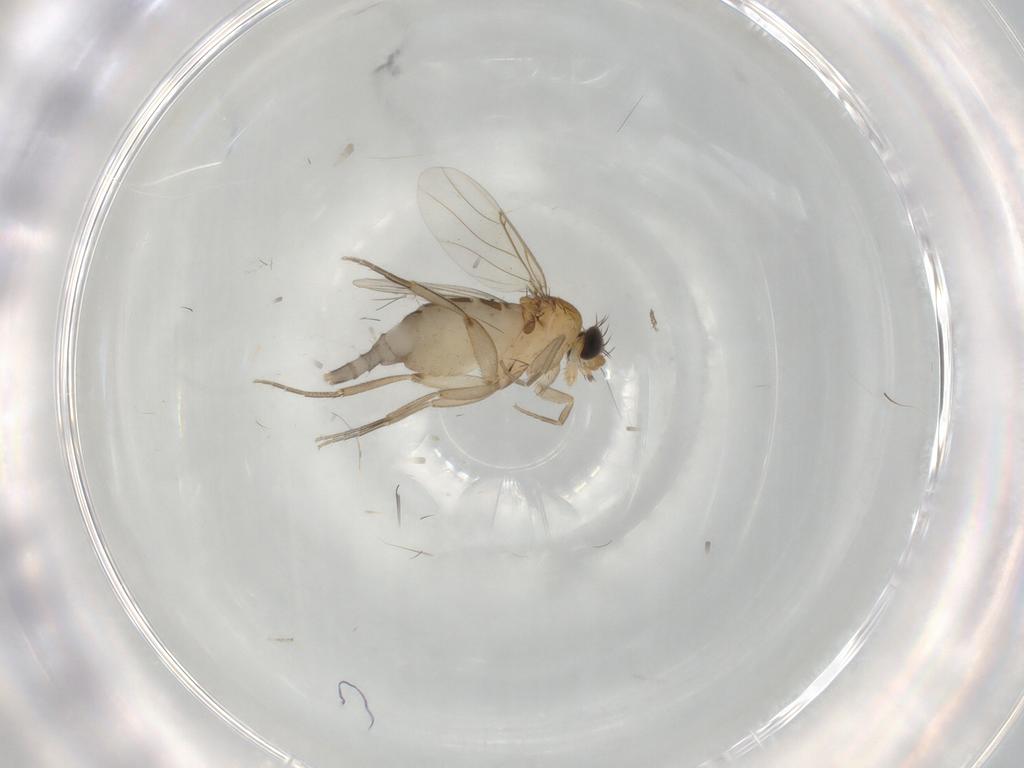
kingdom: Animalia
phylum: Arthropoda
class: Insecta
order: Diptera
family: Phoridae
